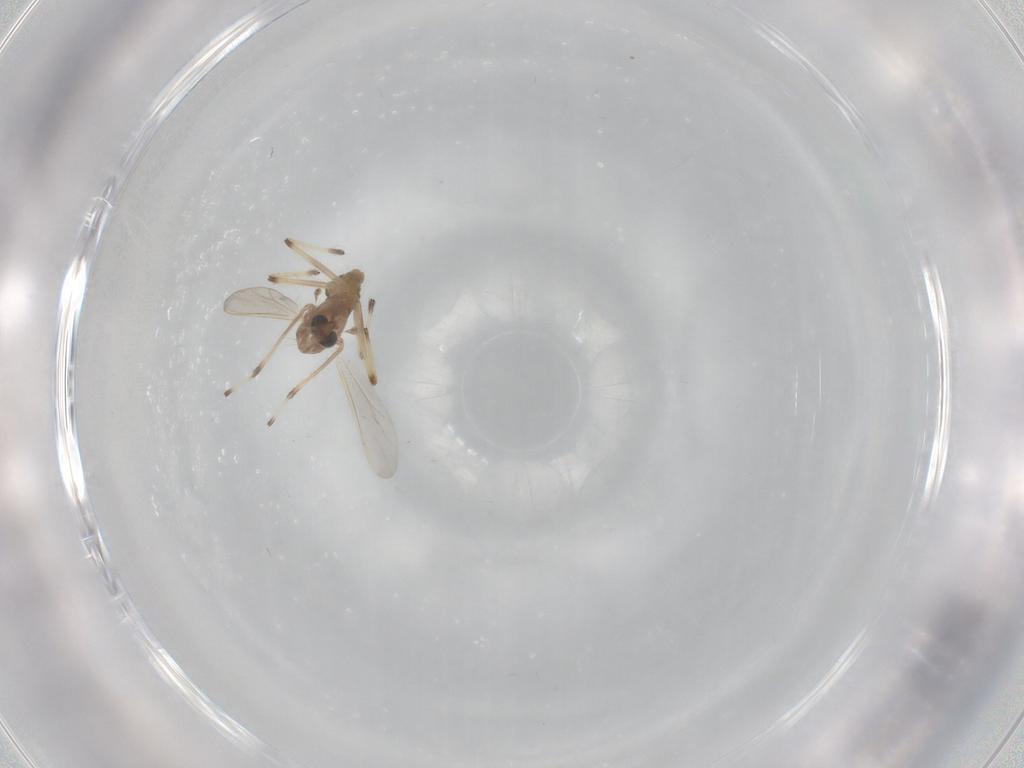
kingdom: Animalia
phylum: Arthropoda
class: Insecta
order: Diptera
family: Chironomidae
